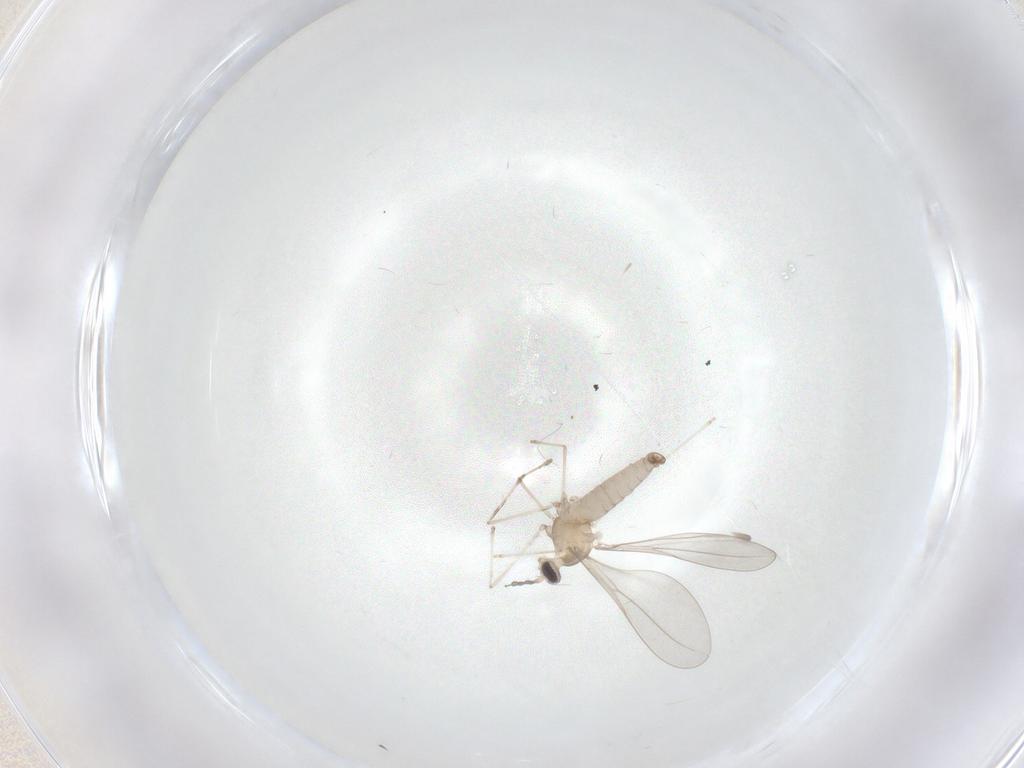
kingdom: Animalia
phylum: Arthropoda
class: Insecta
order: Diptera
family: Cecidomyiidae
